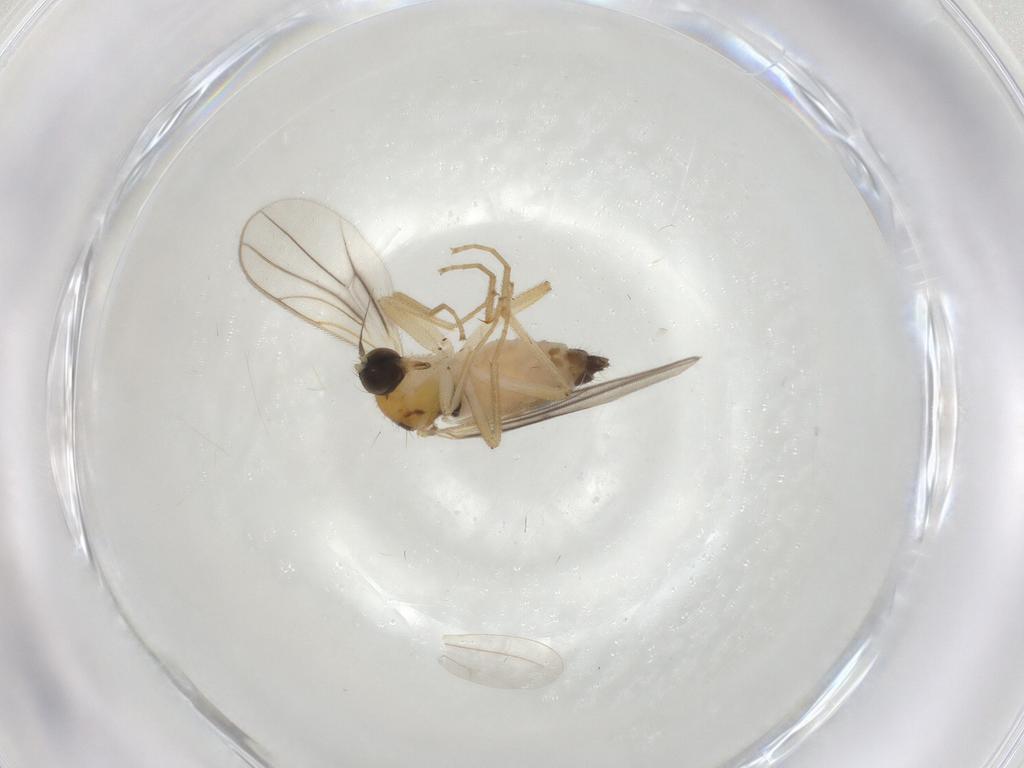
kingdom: Animalia
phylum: Arthropoda
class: Insecta
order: Diptera
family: Hybotidae
